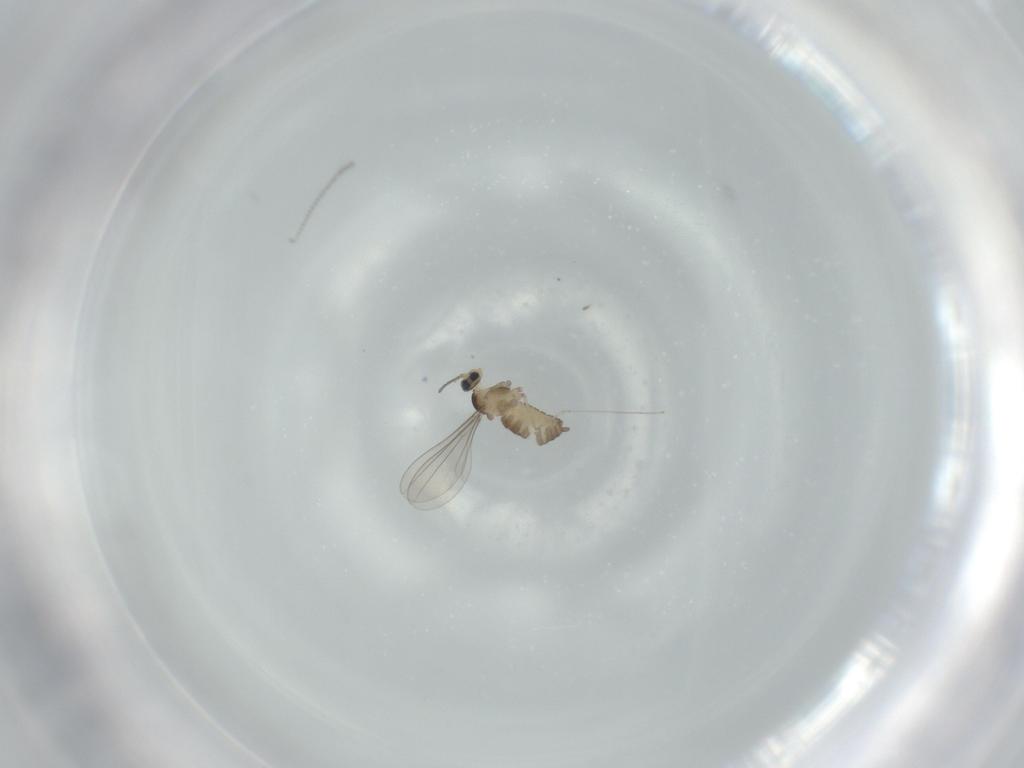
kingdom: Animalia
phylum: Arthropoda
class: Insecta
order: Diptera
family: Cecidomyiidae
